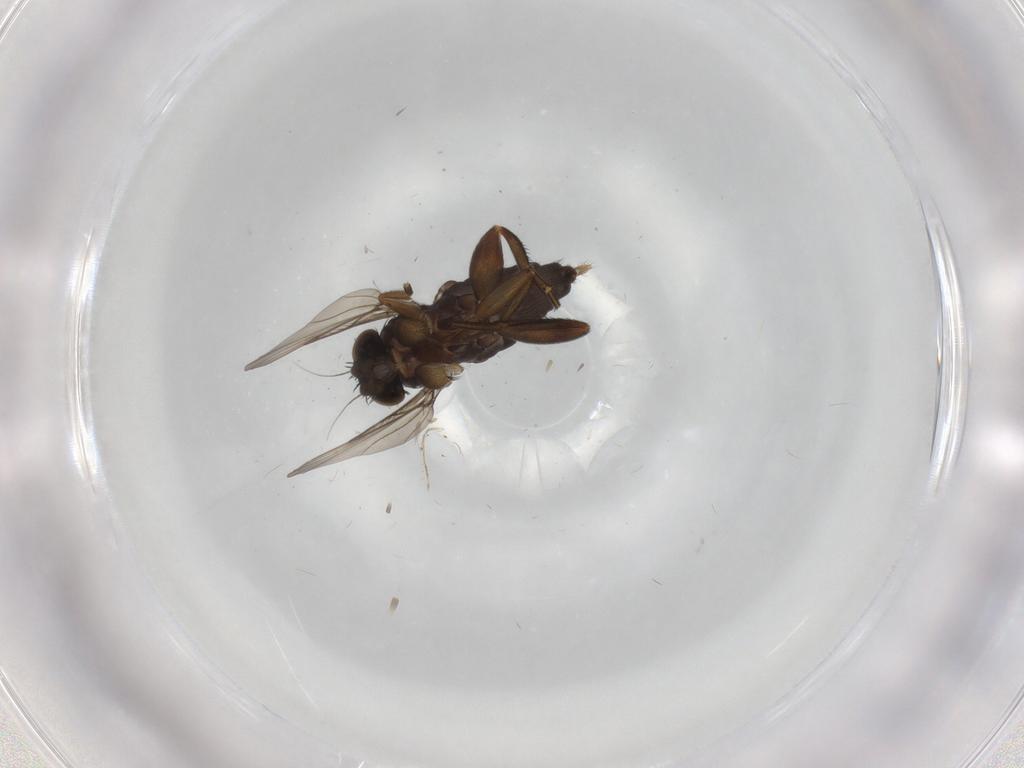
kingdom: Animalia
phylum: Arthropoda
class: Insecta
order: Diptera
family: Phoridae
